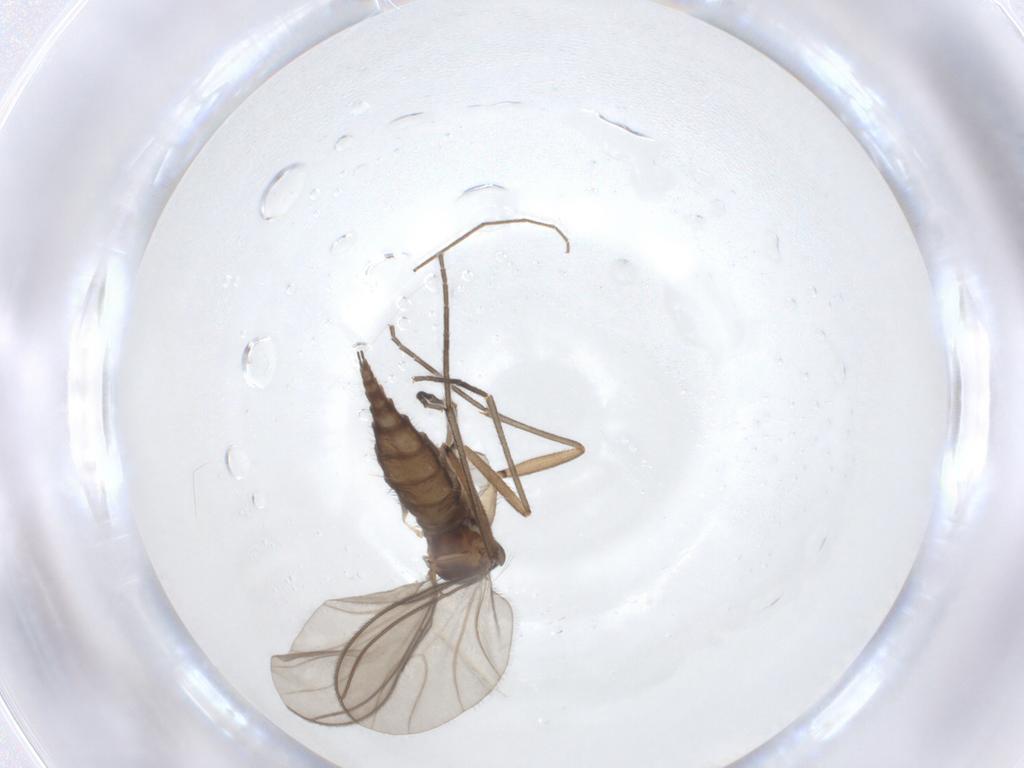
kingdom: Animalia
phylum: Arthropoda
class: Insecta
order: Diptera
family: Sciaridae
